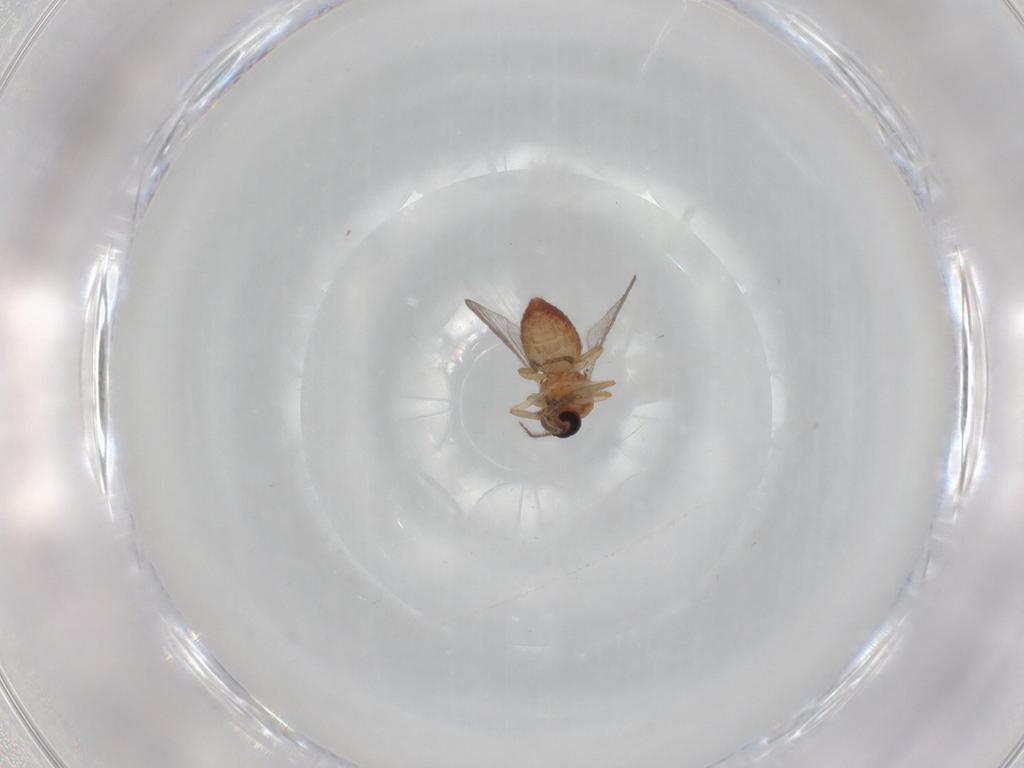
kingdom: Animalia
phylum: Arthropoda
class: Insecta
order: Diptera
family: Ceratopogonidae
